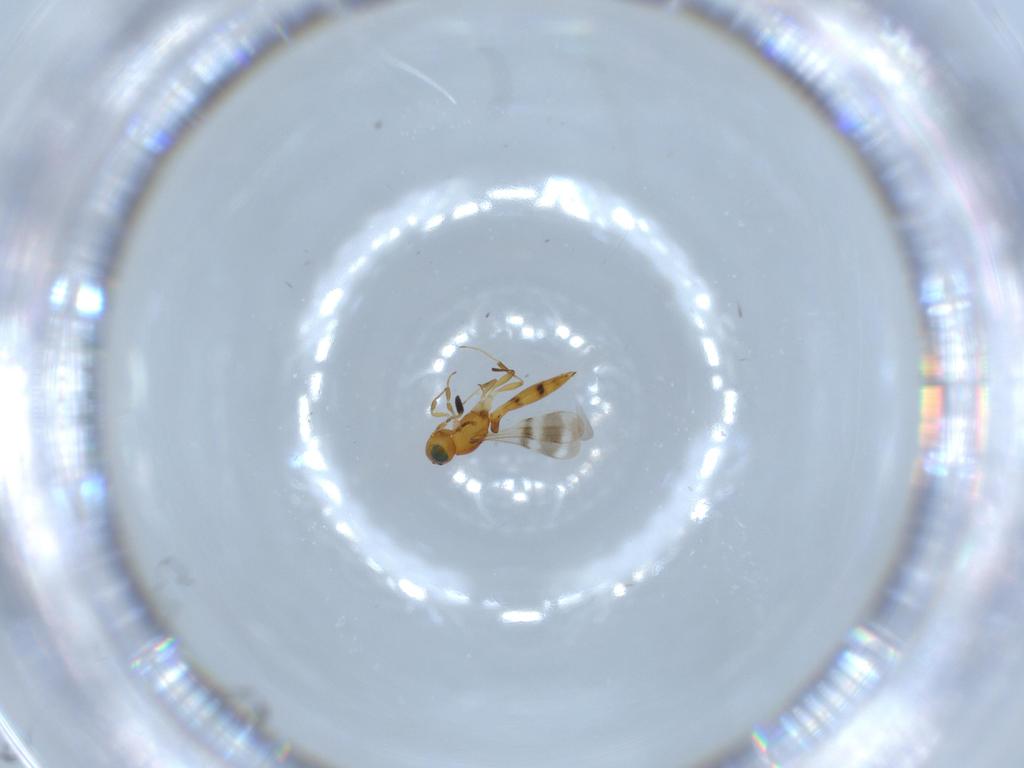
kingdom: Animalia
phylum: Arthropoda
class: Insecta
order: Hymenoptera
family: Scelionidae
